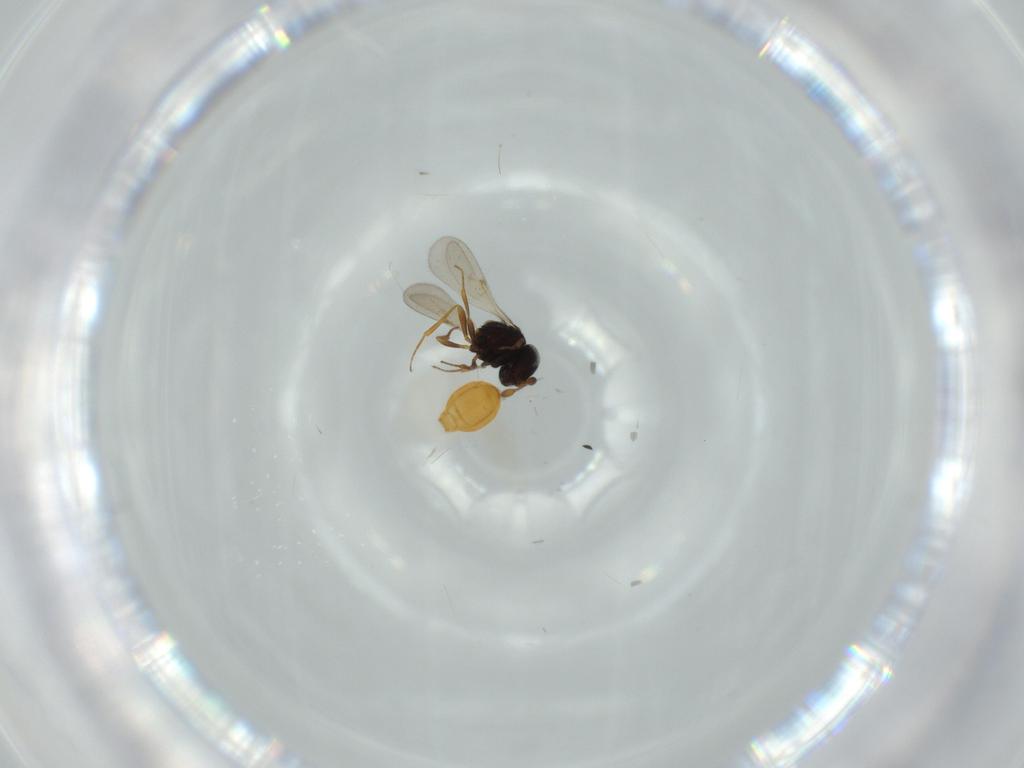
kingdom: Animalia
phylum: Arthropoda
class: Insecta
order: Hymenoptera
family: Scelionidae
